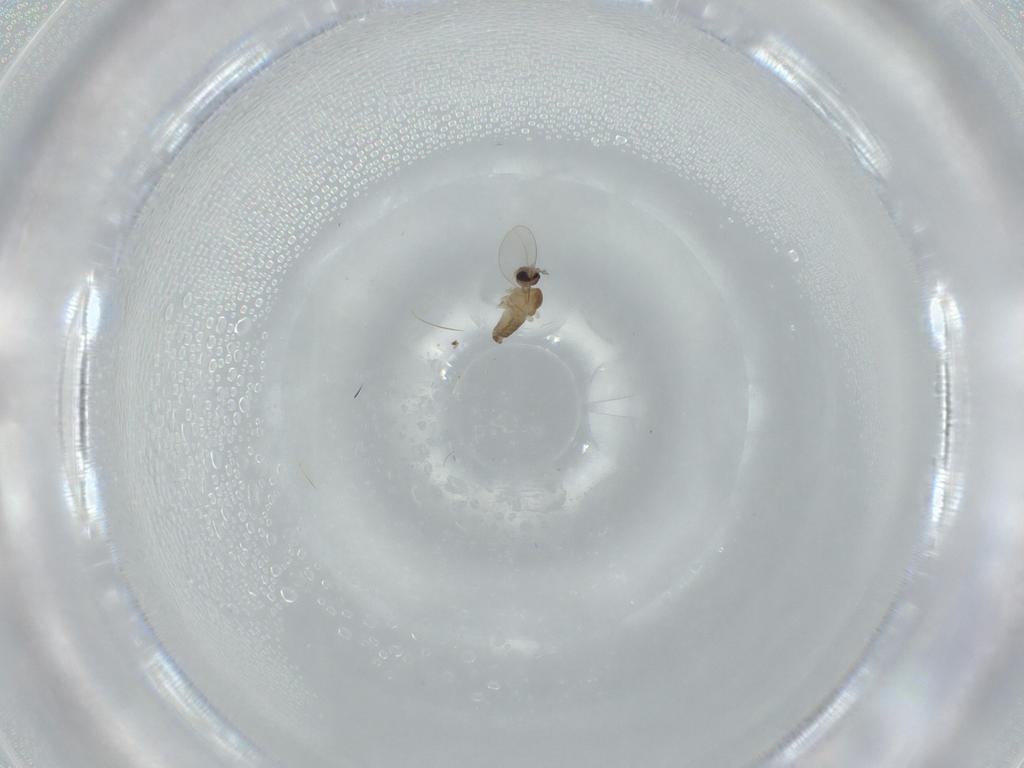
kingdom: Animalia
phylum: Arthropoda
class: Insecta
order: Diptera
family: Cecidomyiidae
